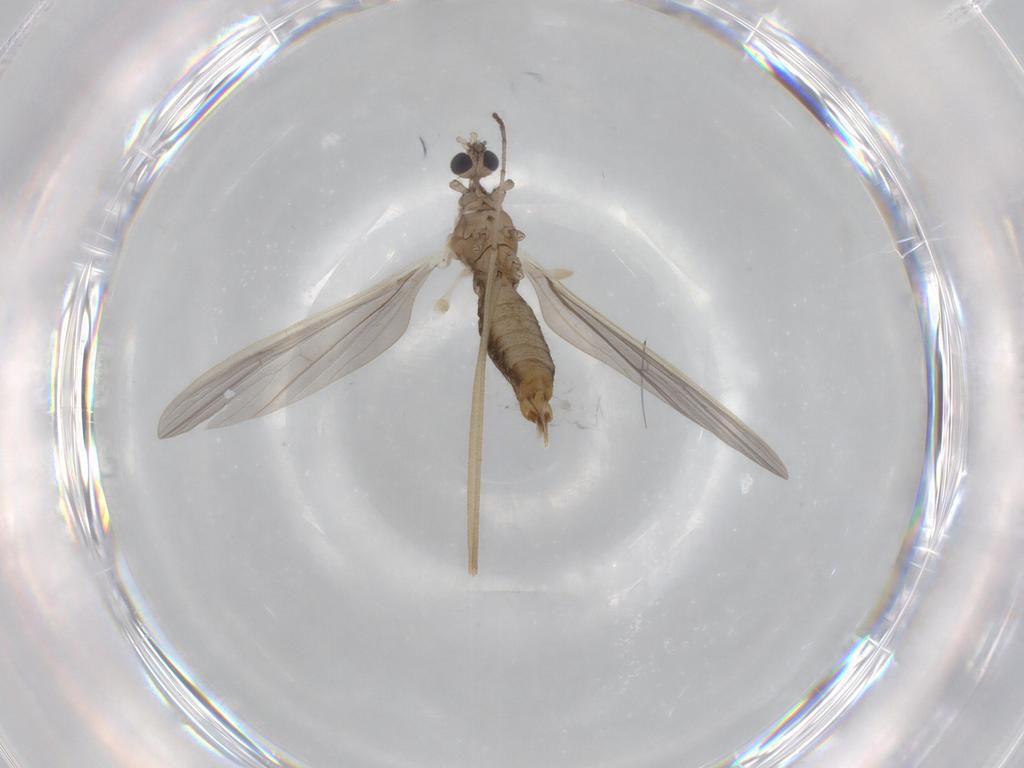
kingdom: Animalia
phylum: Arthropoda
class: Insecta
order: Diptera
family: Limoniidae
